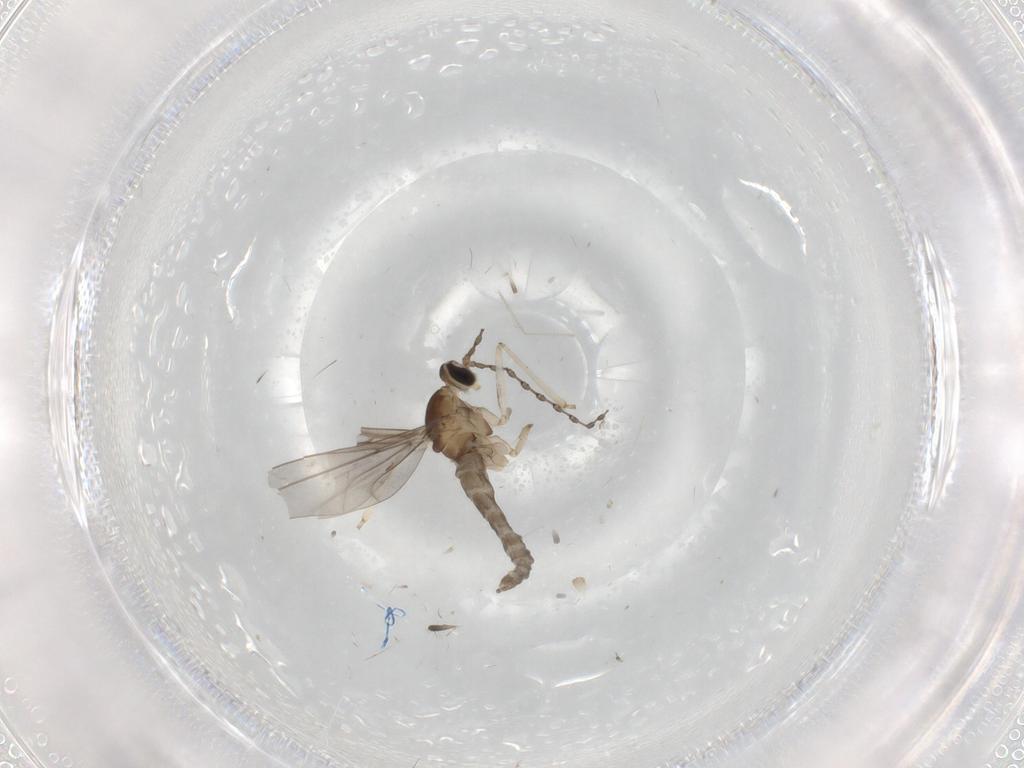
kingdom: Animalia
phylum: Arthropoda
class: Insecta
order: Diptera
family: Cecidomyiidae
